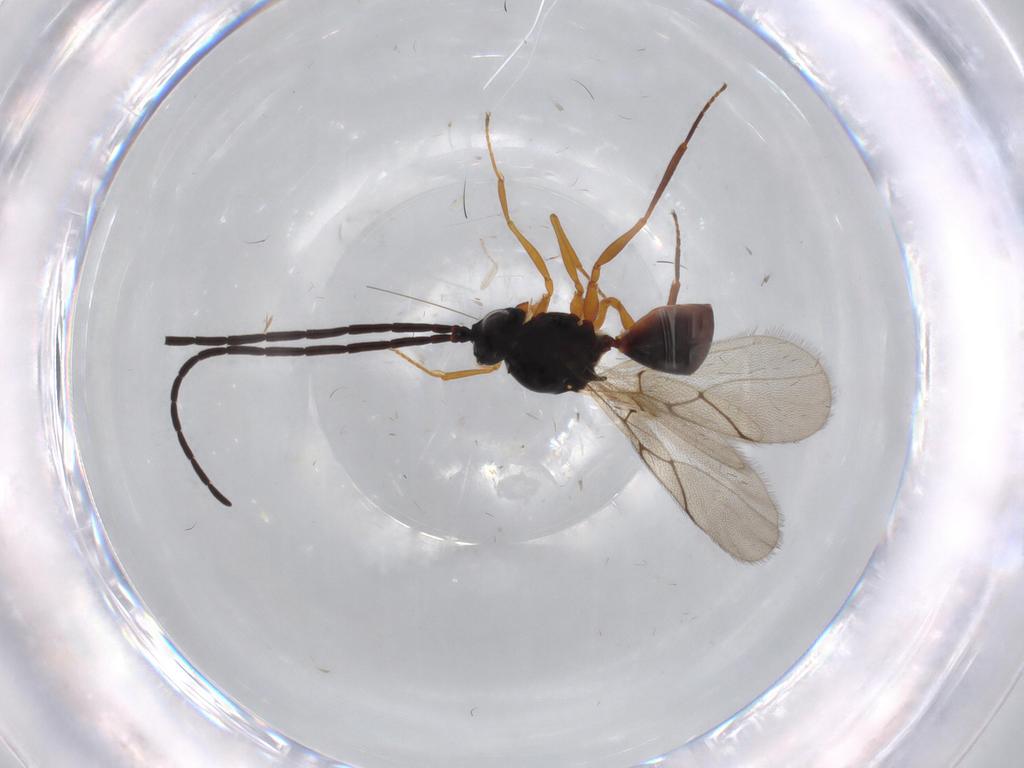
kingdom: Animalia
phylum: Arthropoda
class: Insecta
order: Hymenoptera
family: Figitidae
